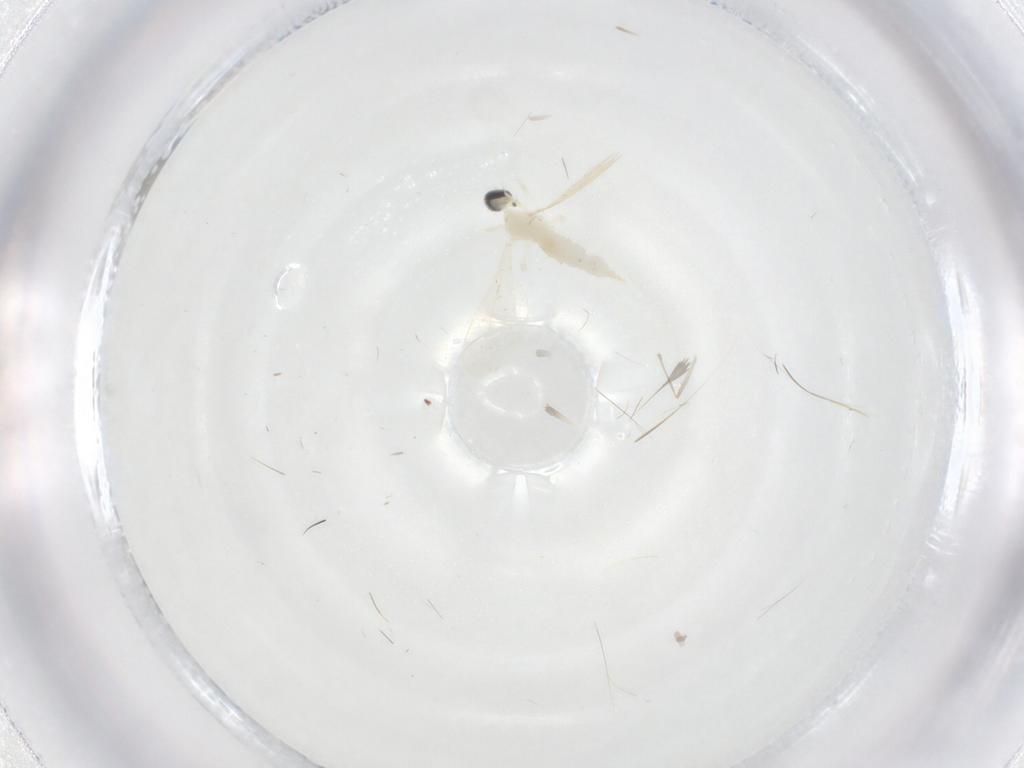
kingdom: Animalia
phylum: Arthropoda
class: Insecta
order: Diptera
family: Cecidomyiidae
